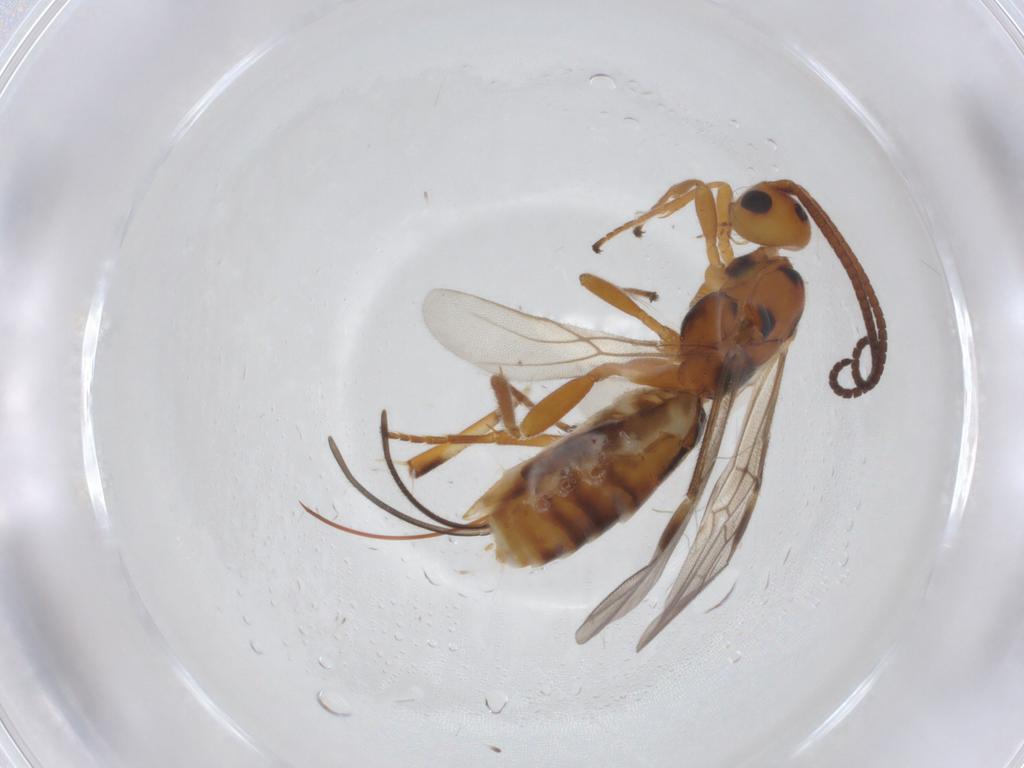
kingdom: Animalia
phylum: Arthropoda
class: Insecta
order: Hymenoptera
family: Braconidae
